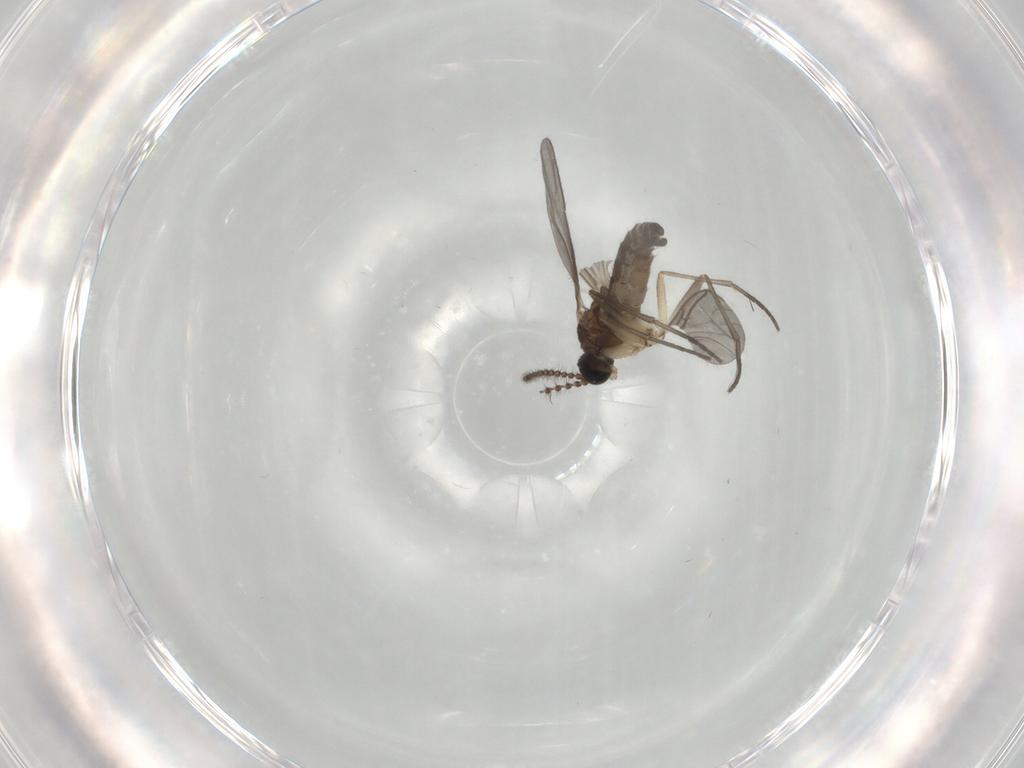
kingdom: Animalia
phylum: Arthropoda
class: Insecta
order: Diptera
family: Sciaridae
